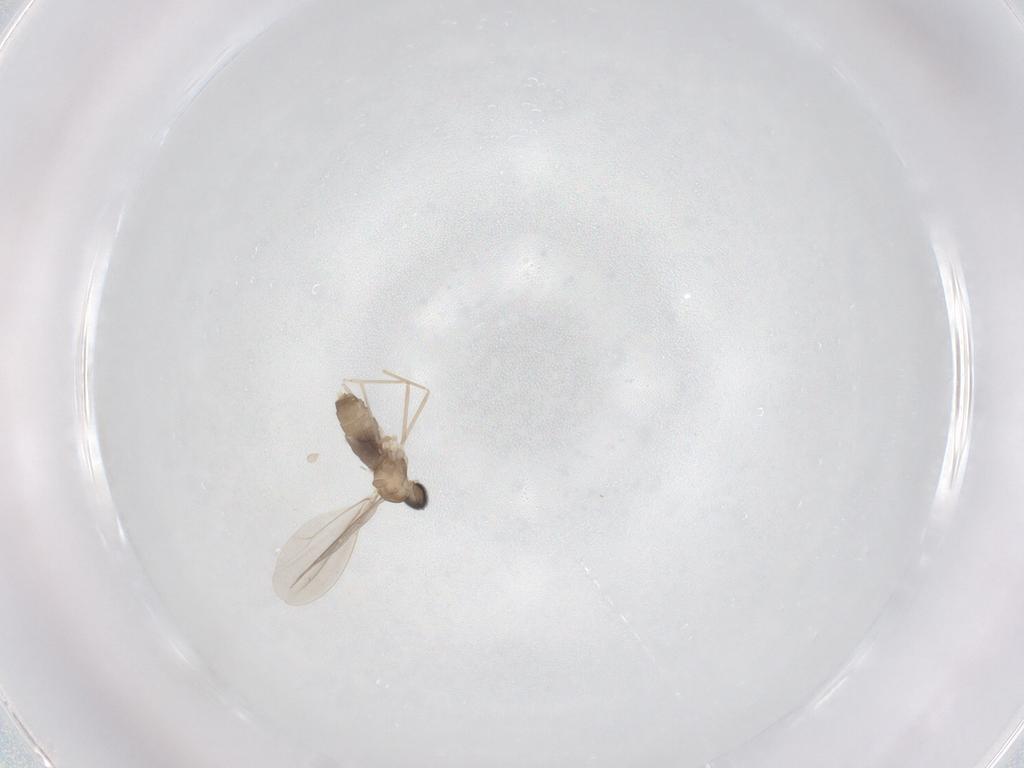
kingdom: Animalia
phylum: Arthropoda
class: Insecta
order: Diptera
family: Cecidomyiidae
